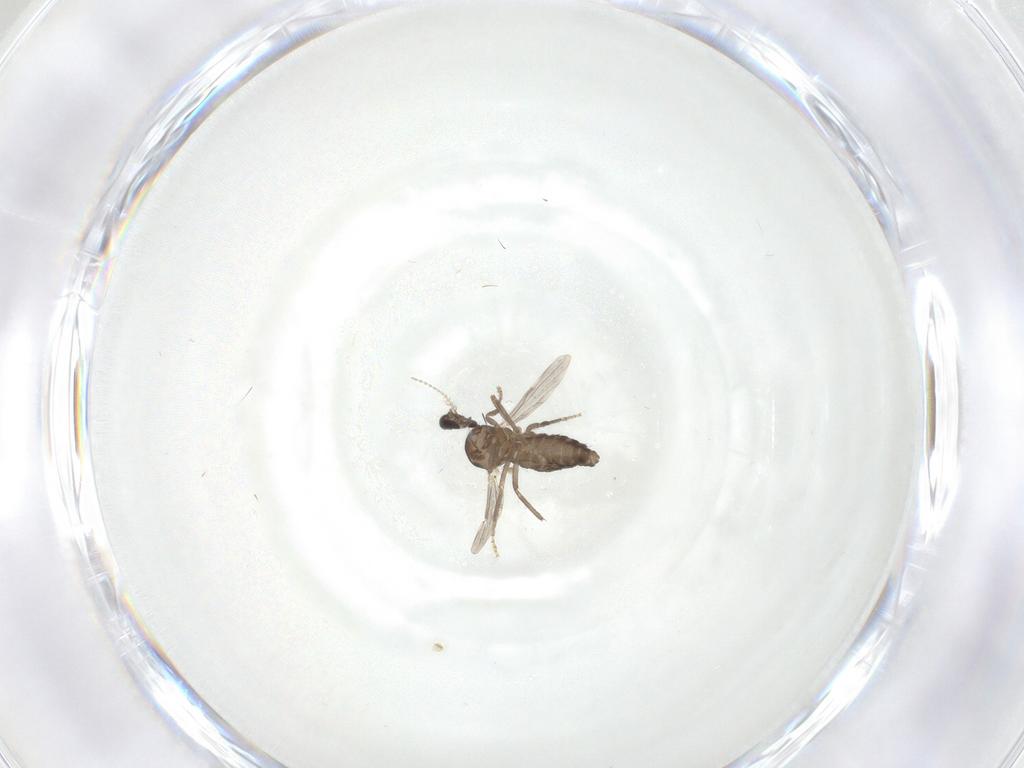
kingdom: Animalia
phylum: Arthropoda
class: Insecta
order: Diptera
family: Ceratopogonidae
